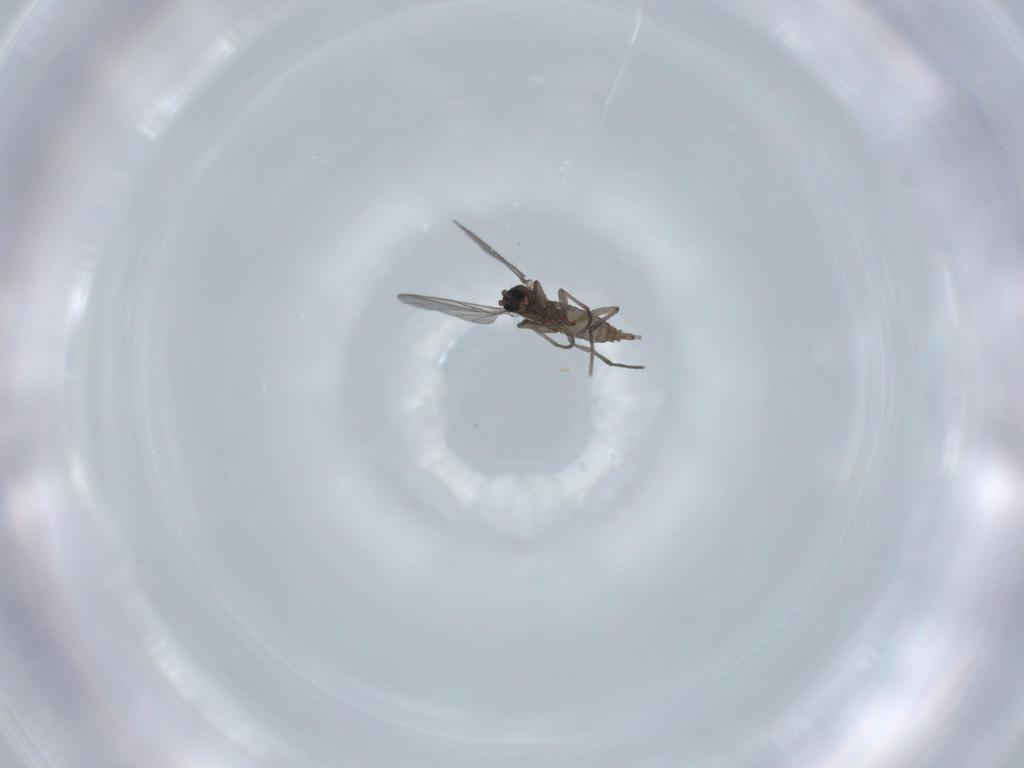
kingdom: Animalia
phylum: Arthropoda
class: Insecta
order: Diptera
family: Sciaridae
